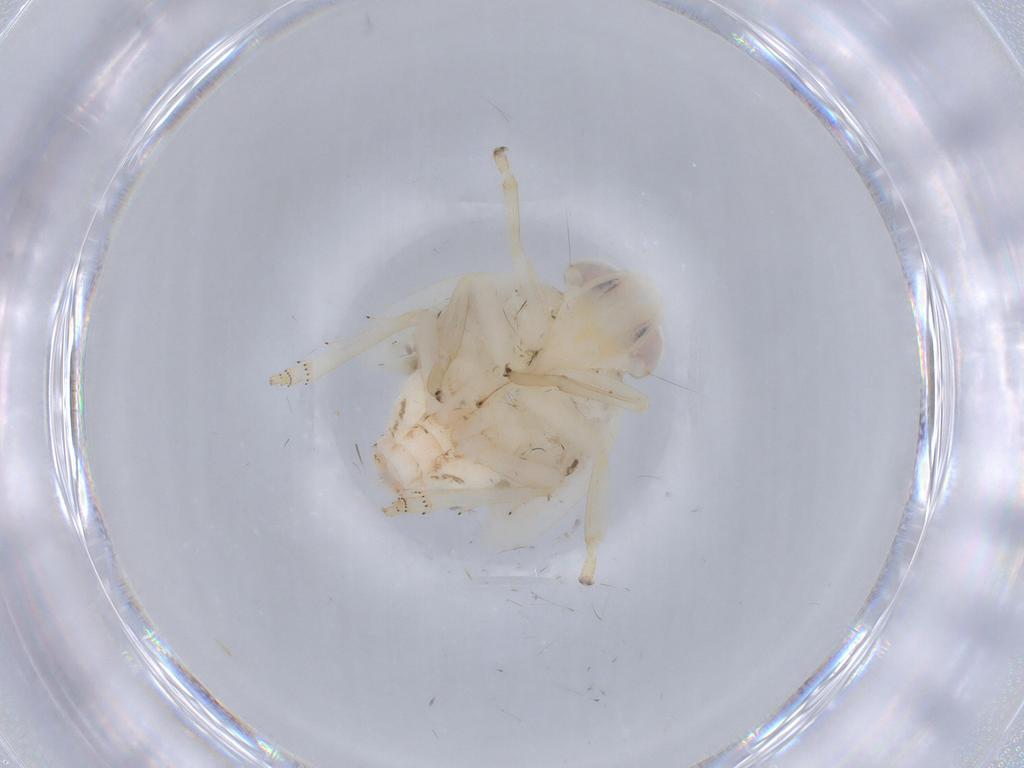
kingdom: Animalia
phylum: Arthropoda
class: Insecta
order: Hemiptera
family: Nogodinidae
